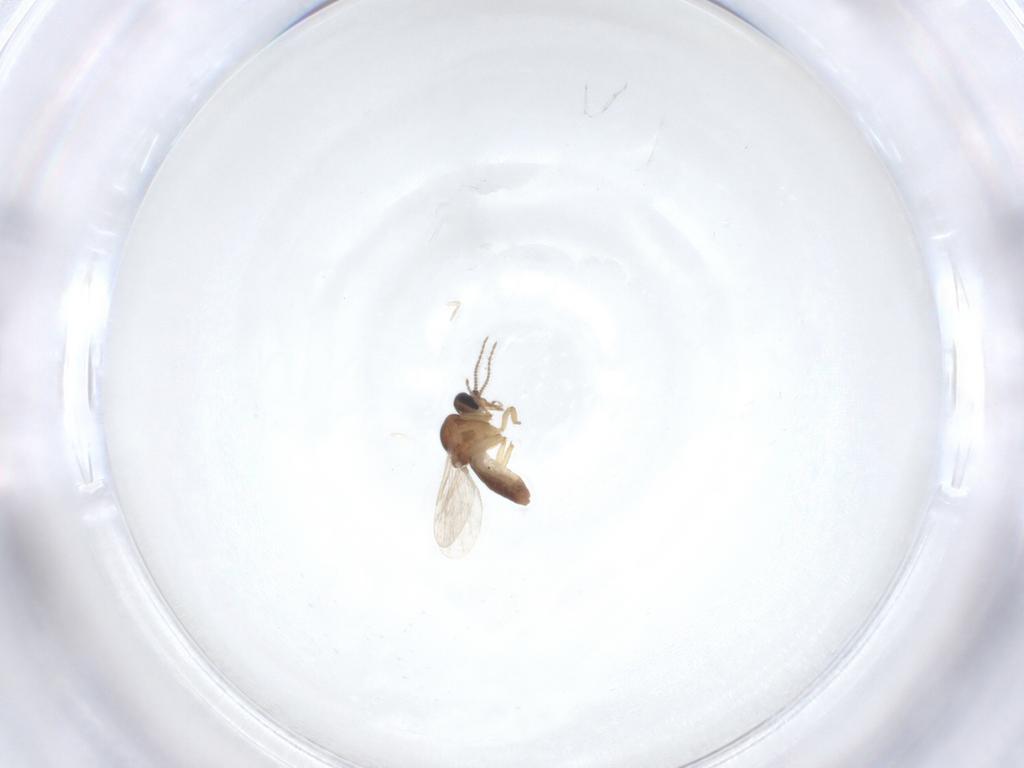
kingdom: Animalia
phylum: Arthropoda
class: Insecta
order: Diptera
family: Ceratopogonidae
